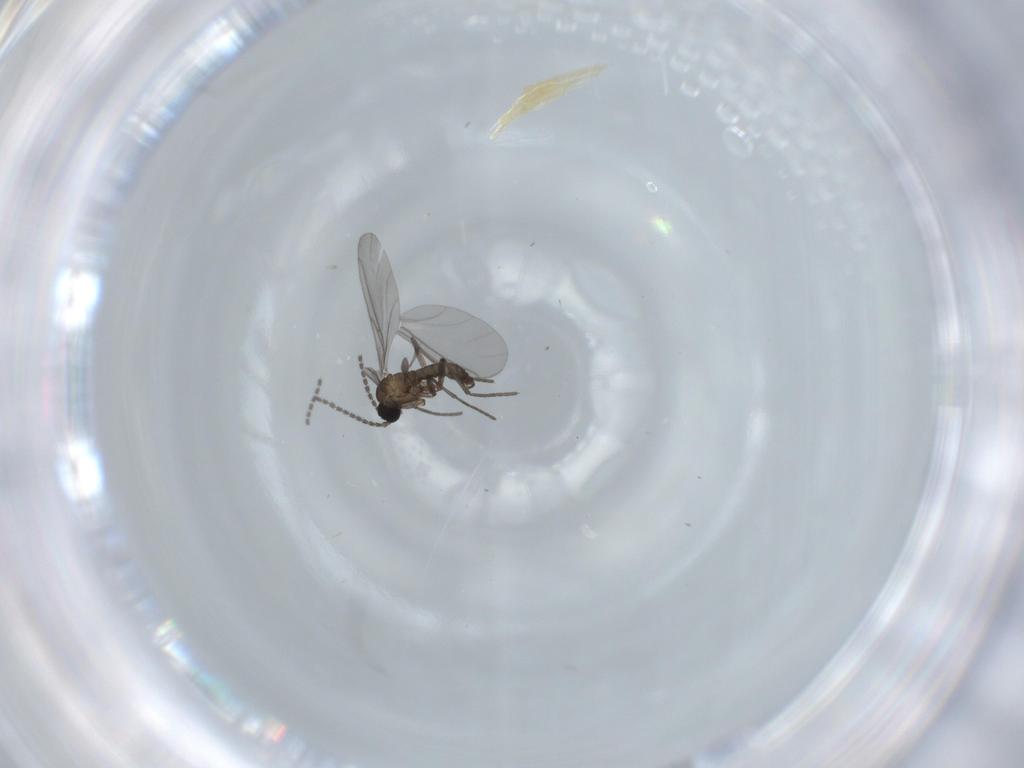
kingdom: Animalia
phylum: Arthropoda
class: Insecta
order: Diptera
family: Sciaridae
